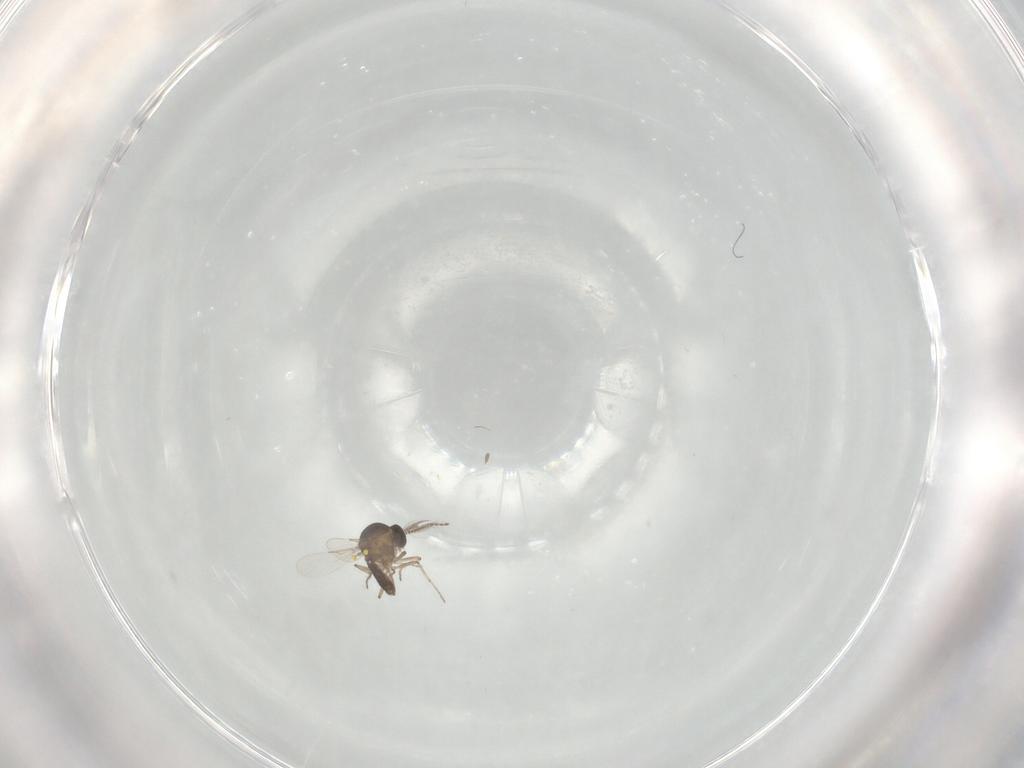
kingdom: Animalia
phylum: Arthropoda
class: Insecta
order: Diptera
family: Ceratopogonidae
